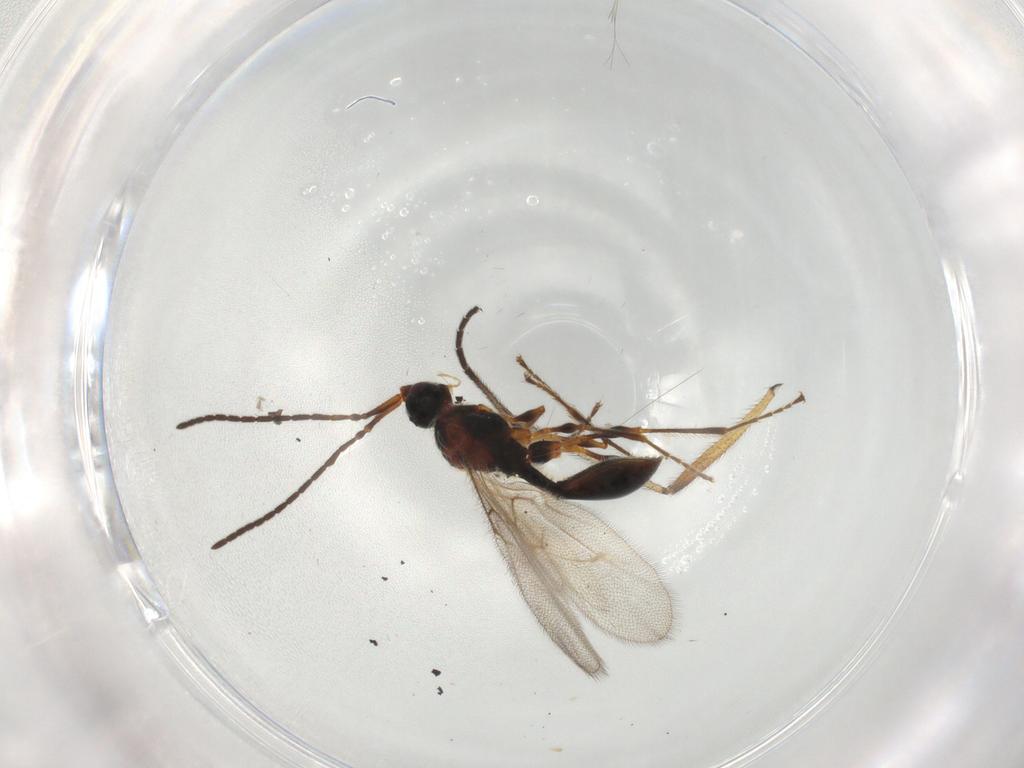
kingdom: Animalia
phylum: Arthropoda
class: Insecta
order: Hymenoptera
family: Diapriidae
